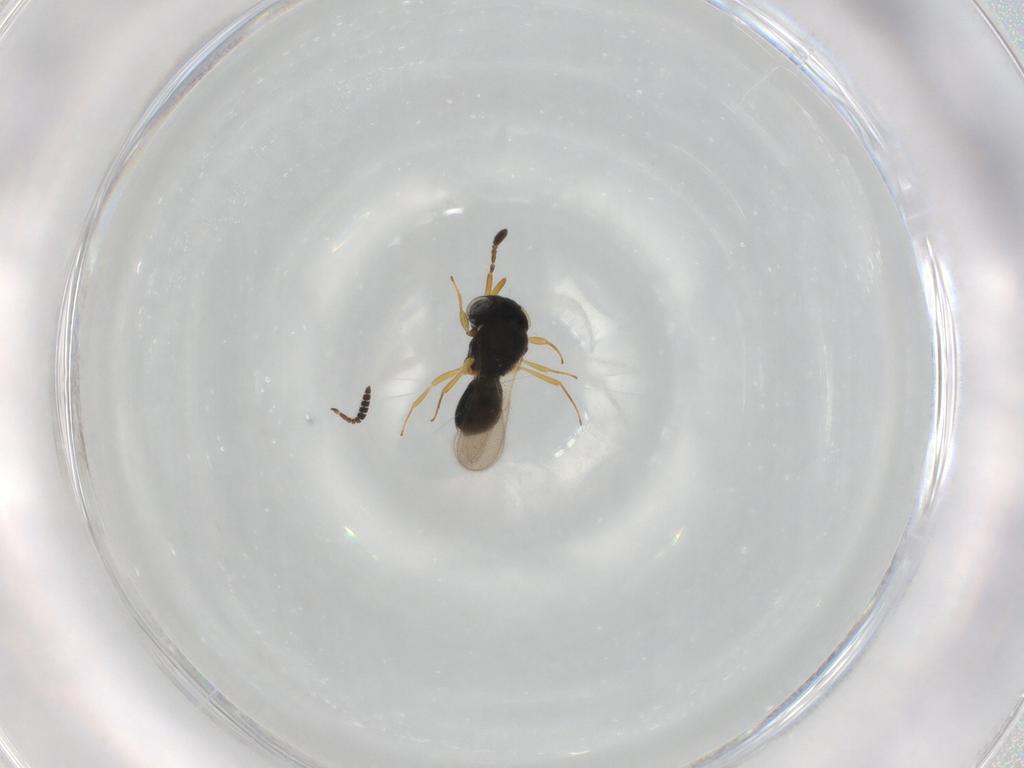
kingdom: Animalia
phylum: Arthropoda
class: Insecta
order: Hymenoptera
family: Scelionidae
